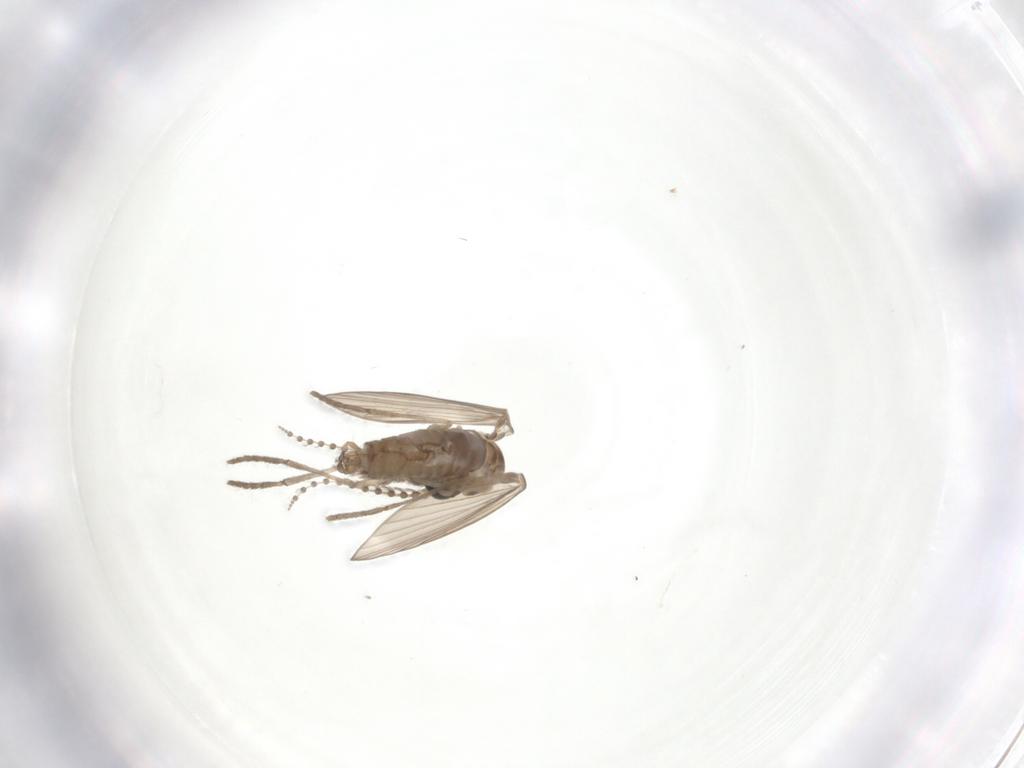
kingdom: Animalia
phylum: Arthropoda
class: Insecta
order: Diptera
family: Psychodidae
